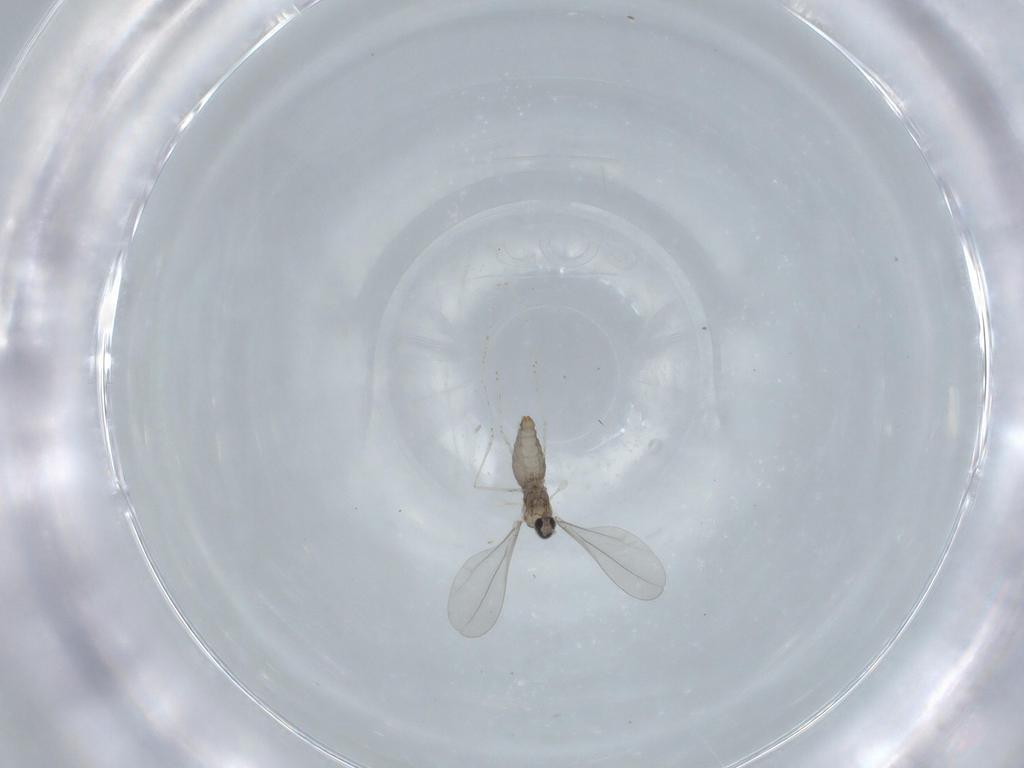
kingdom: Animalia
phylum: Arthropoda
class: Insecta
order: Diptera
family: Cecidomyiidae
